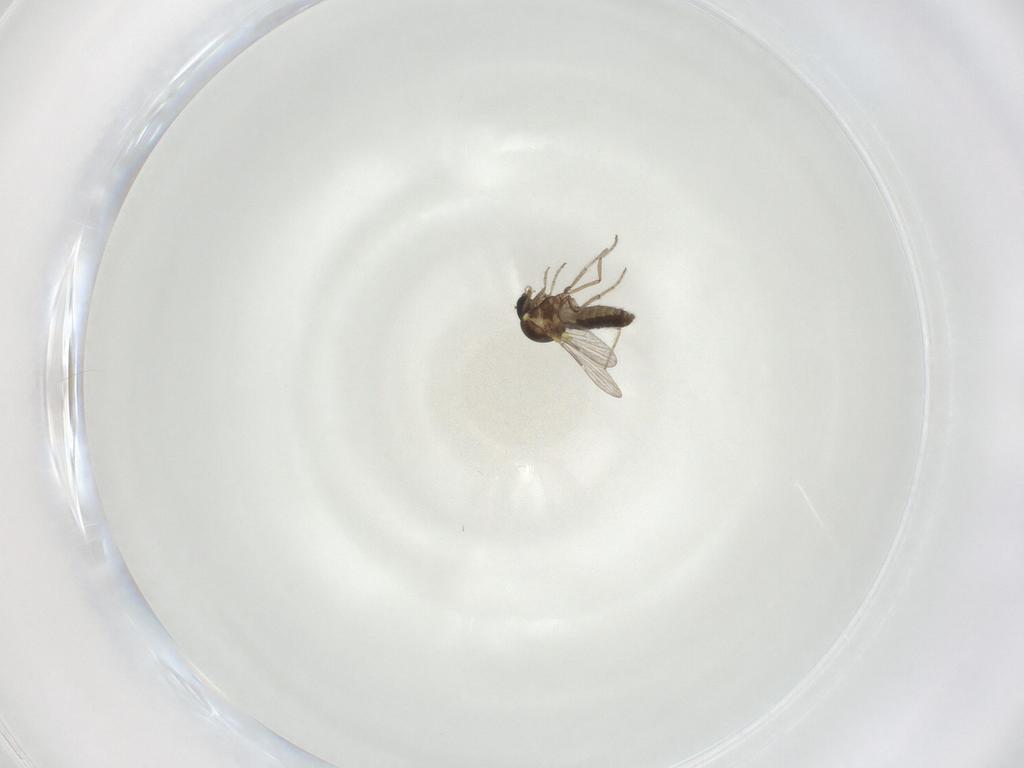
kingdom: Animalia
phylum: Arthropoda
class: Insecta
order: Diptera
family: Ceratopogonidae
